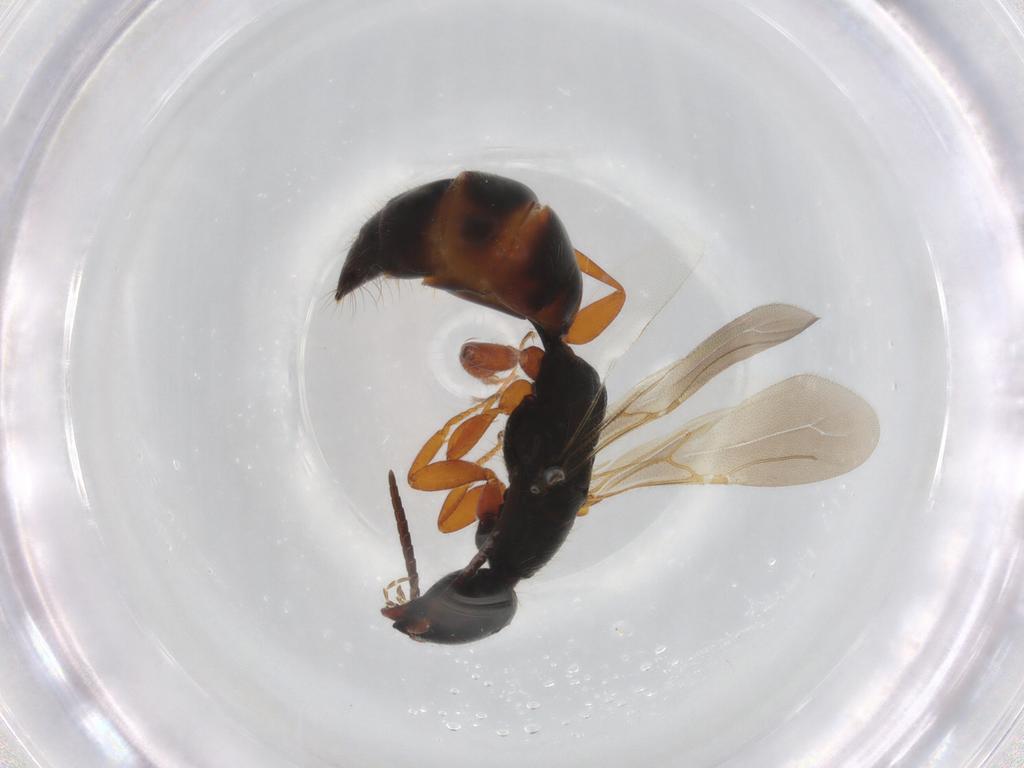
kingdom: Animalia
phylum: Arthropoda
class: Insecta
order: Hymenoptera
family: Bethylidae
